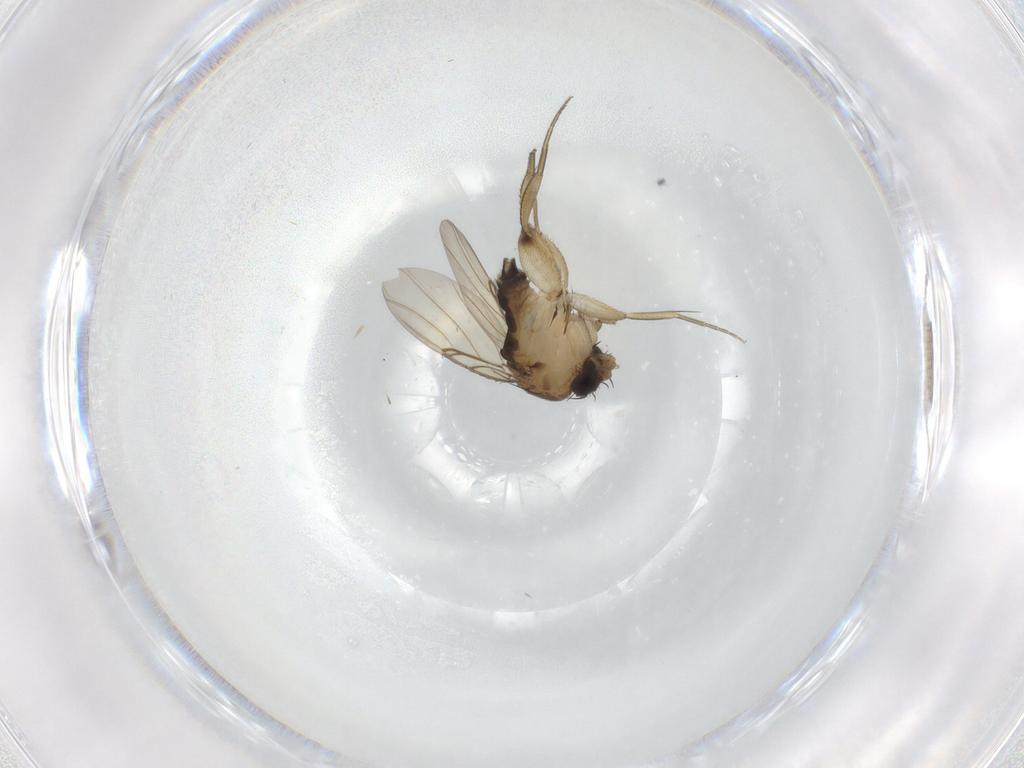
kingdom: Animalia
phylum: Arthropoda
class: Insecta
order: Diptera
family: Phoridae
